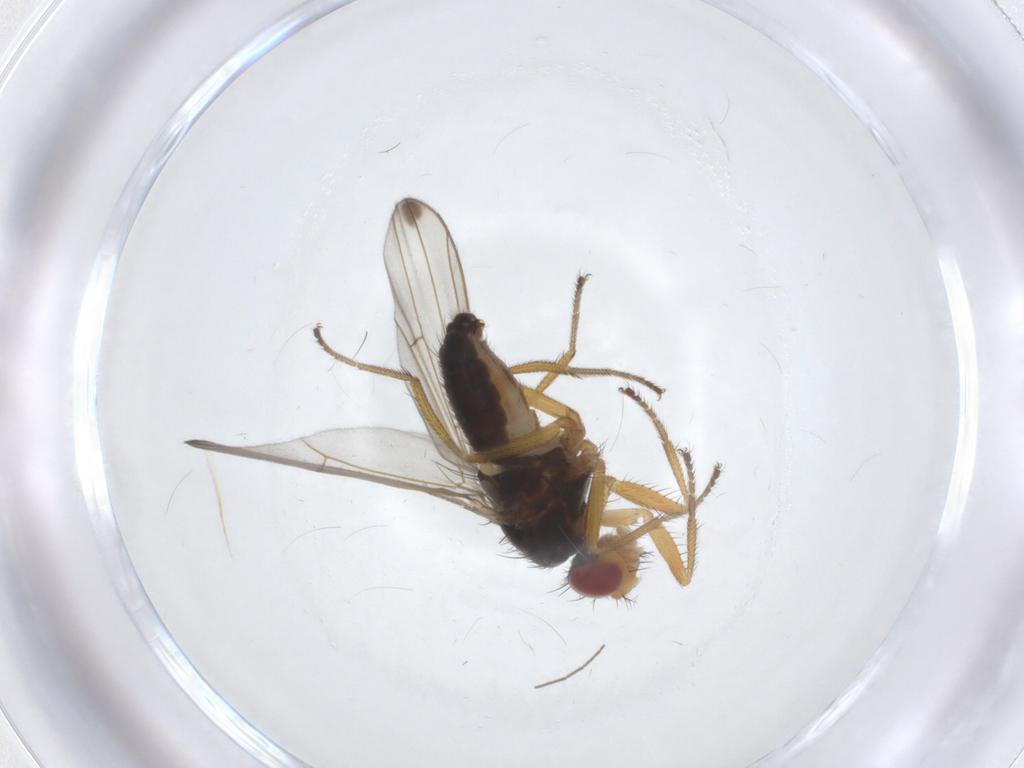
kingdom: Animalia
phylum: Arthropoda
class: Insecta
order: Diptera
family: Drosophilidae
